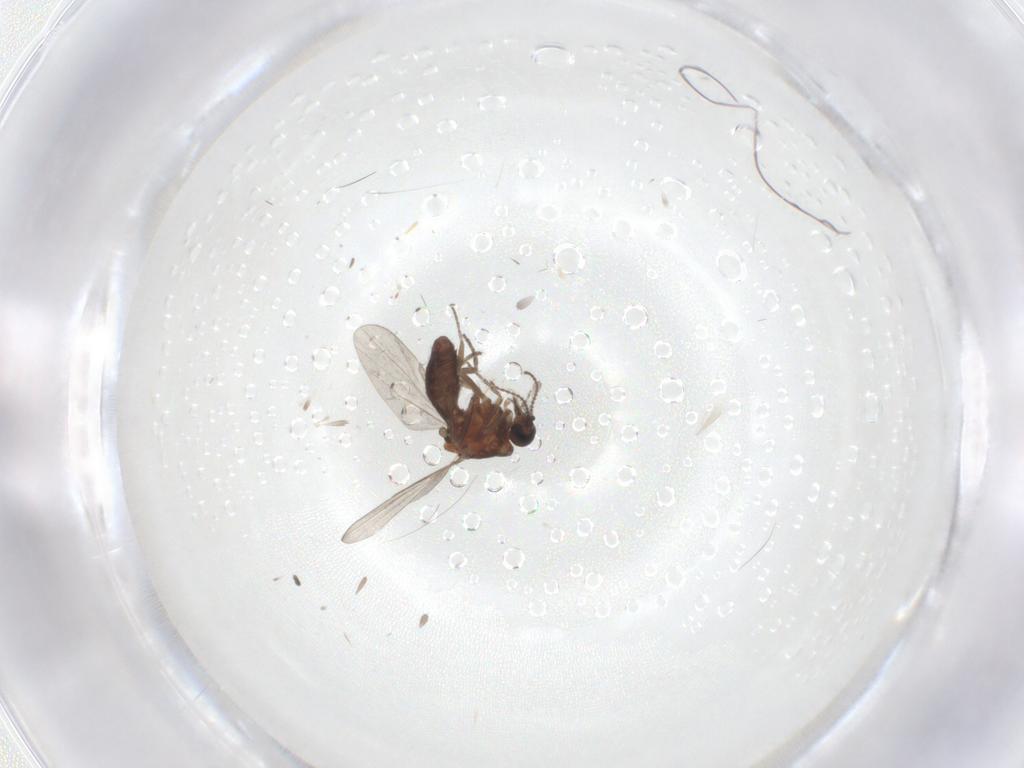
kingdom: Animalia
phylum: Arthropoda
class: Insecta
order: Diptera
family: Ceratopogonidae
